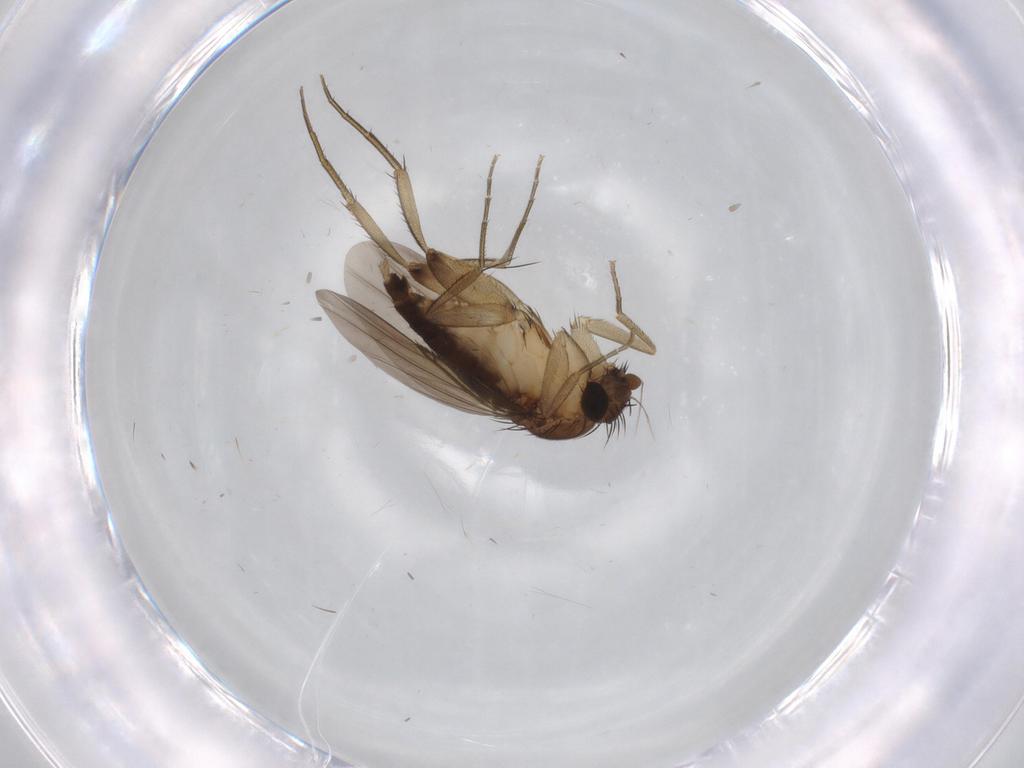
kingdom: Animalia
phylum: Arthropoda
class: Insecta
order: Diptera
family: Phoridae
